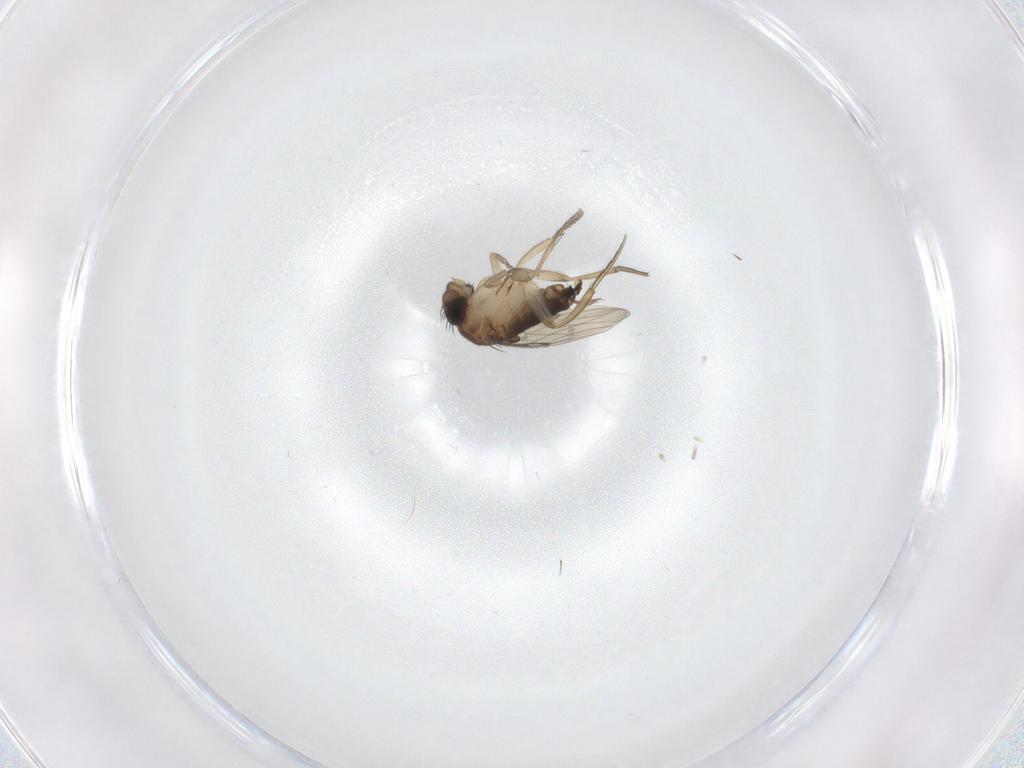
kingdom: Animalia
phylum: Arthropoda
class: Insecta
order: Diptera
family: Ceratopogonidae
